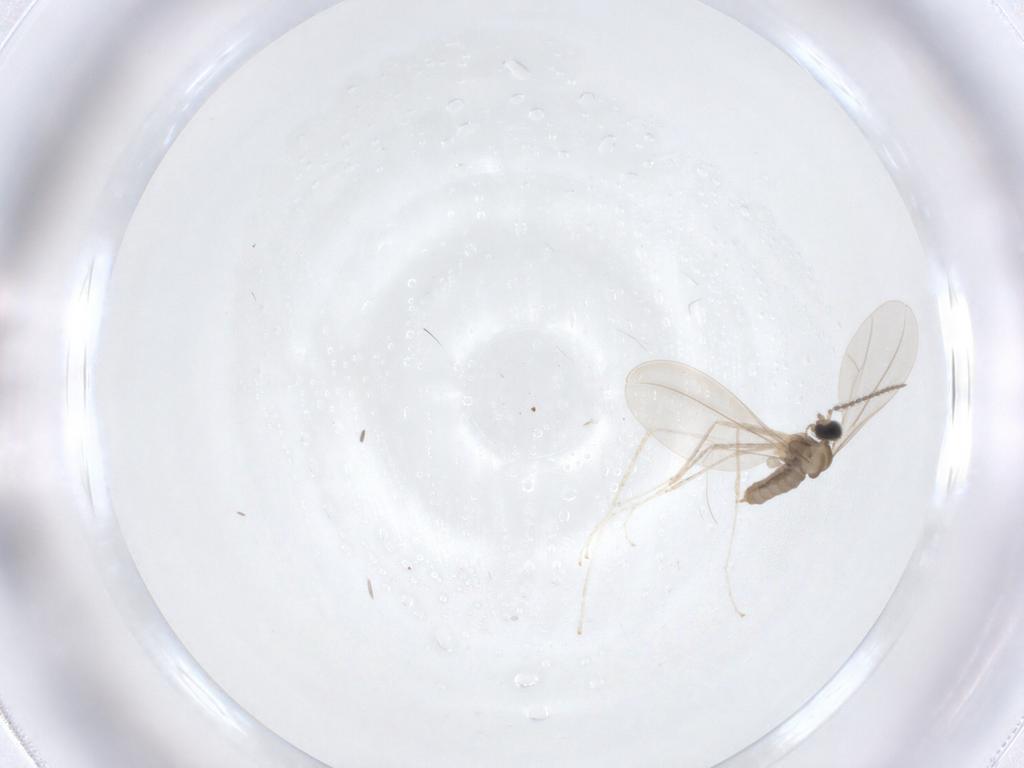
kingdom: Animalia
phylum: Arthropoda
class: Insecta
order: Diptera
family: Cecidomyiidae
